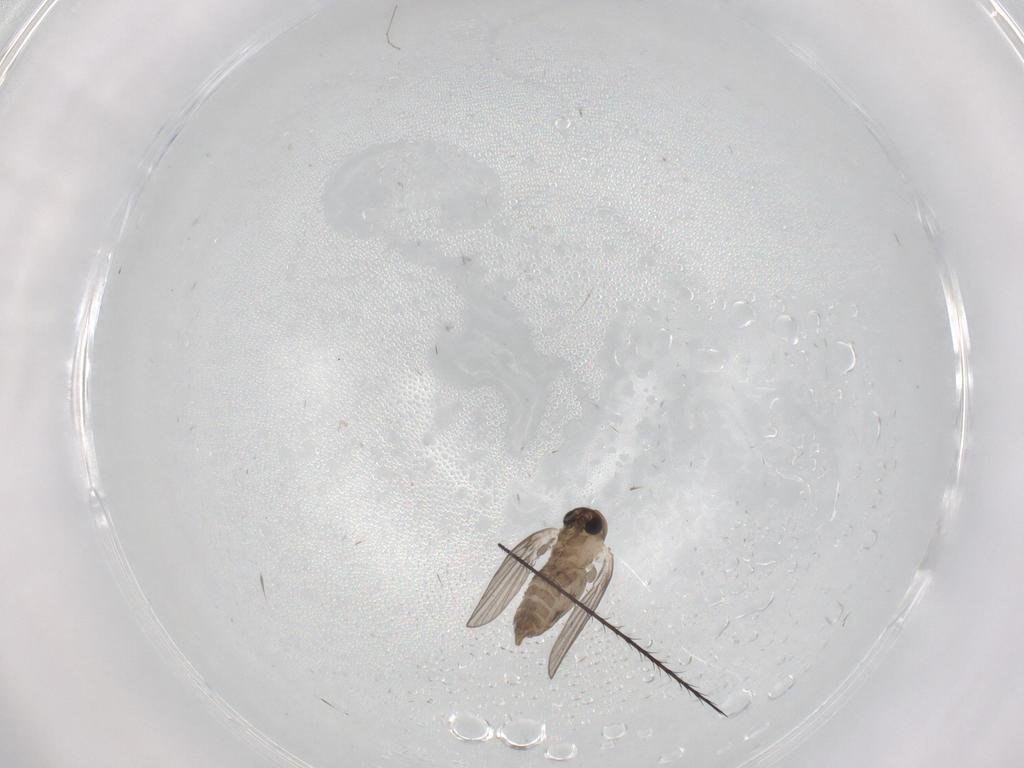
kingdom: Animalia
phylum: Arthropoda
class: Insecta
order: Diptera
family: Psychodidae
